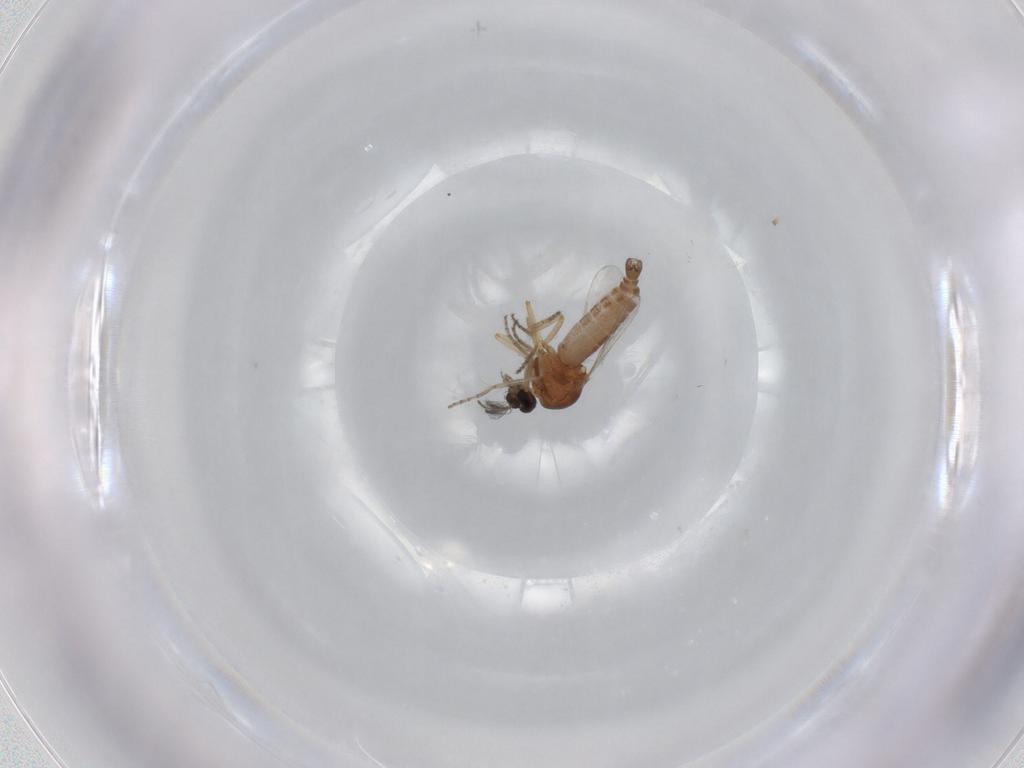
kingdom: Animalia
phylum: Arthropoda
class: Insecta
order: Diptera
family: Ceratopogonidae
